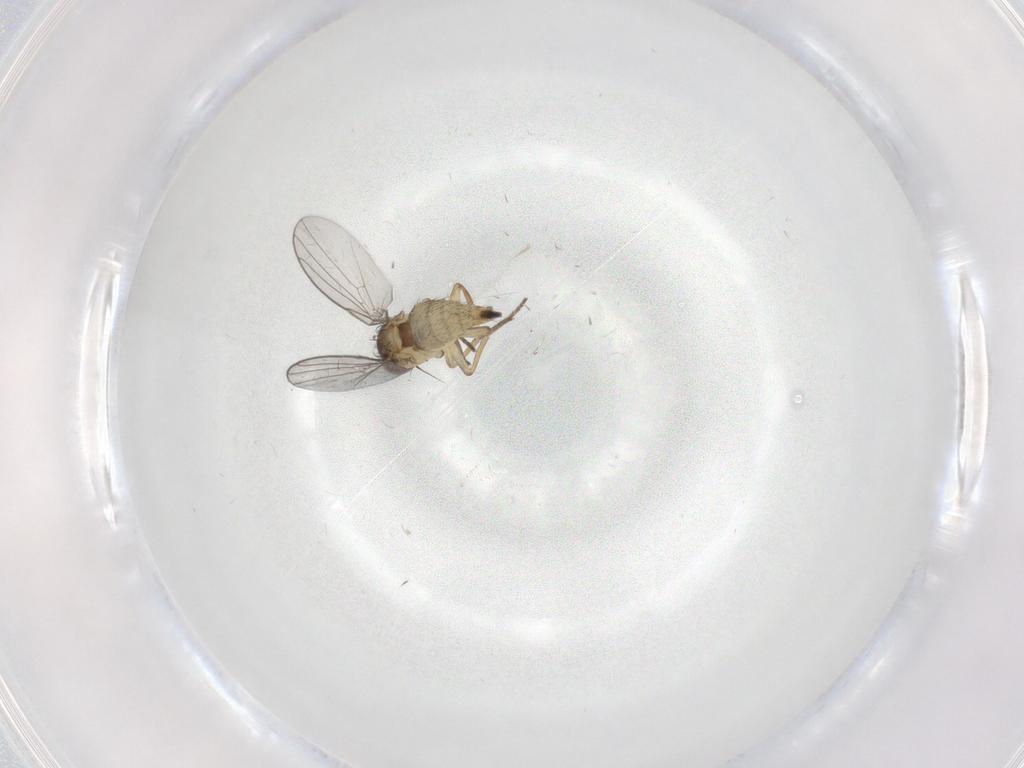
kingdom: Animalia
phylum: Arthropoda
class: Insecta
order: Diptera
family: Agromyzidae
